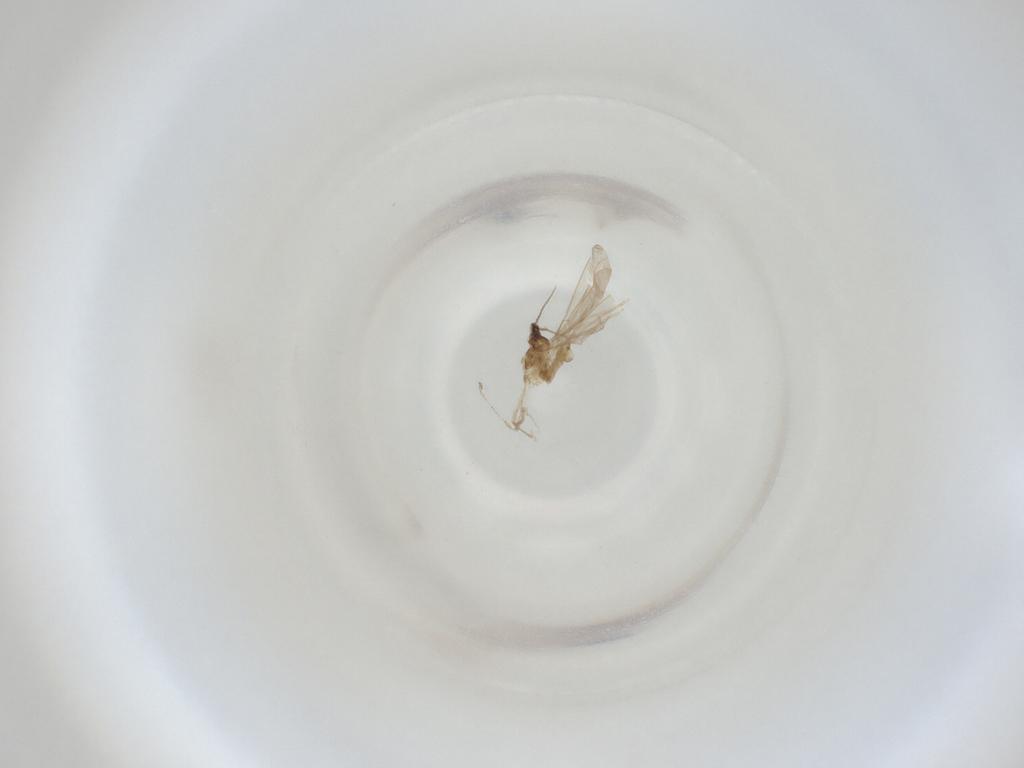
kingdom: Animalia
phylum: Arthropoda
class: Insecta
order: Diptera
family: Cecidomyiidae
